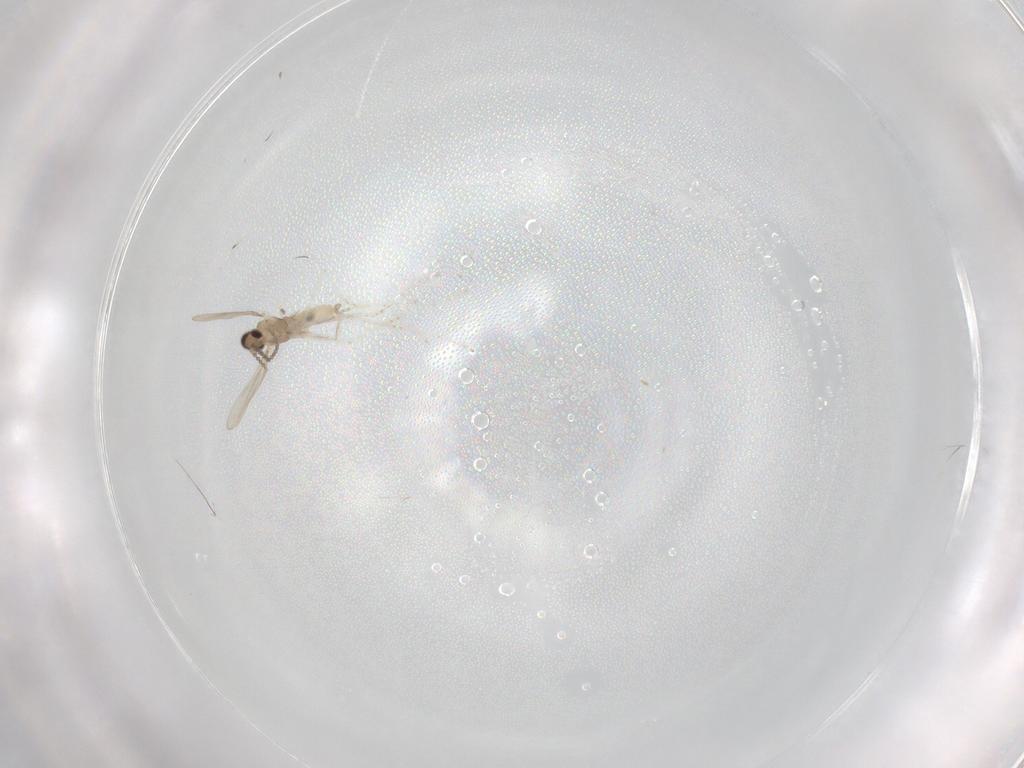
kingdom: Animalia
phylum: Arthropoda
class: Insecta
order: Diptera
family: Cecidomyiidae
